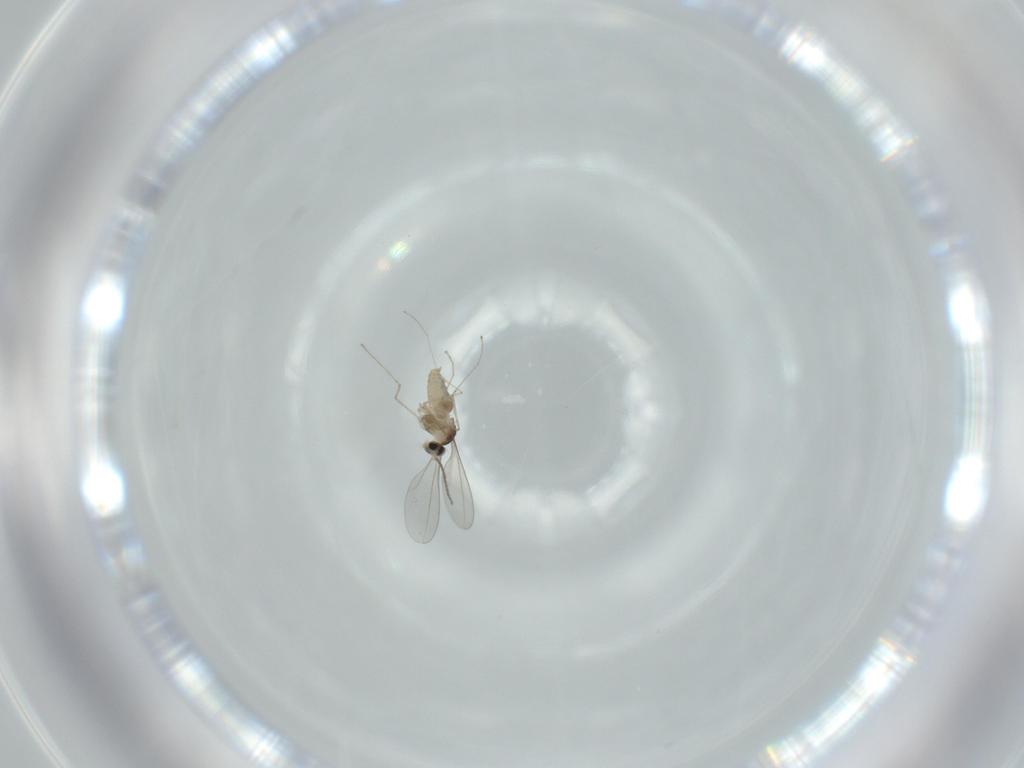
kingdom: Animalia
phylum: Arthropoda
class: Insecta
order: Diptera
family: Cecidomyiidae
